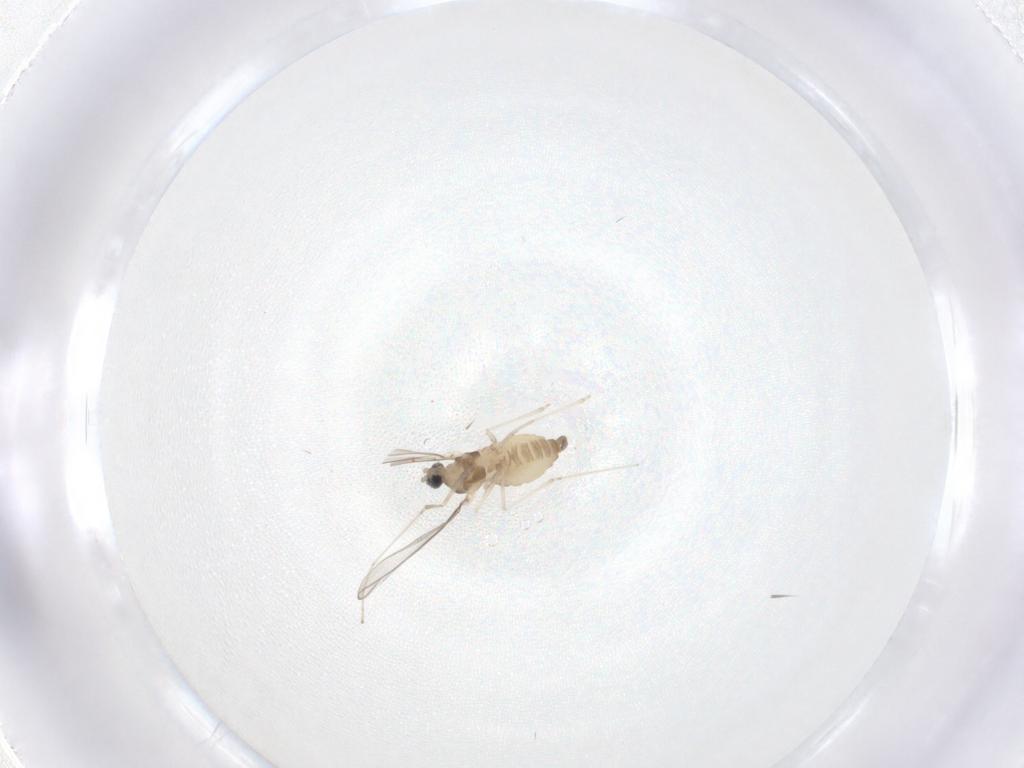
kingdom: Animalia
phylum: Arthropoda
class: Insecta
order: Diptera
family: Cecidomyiidae
